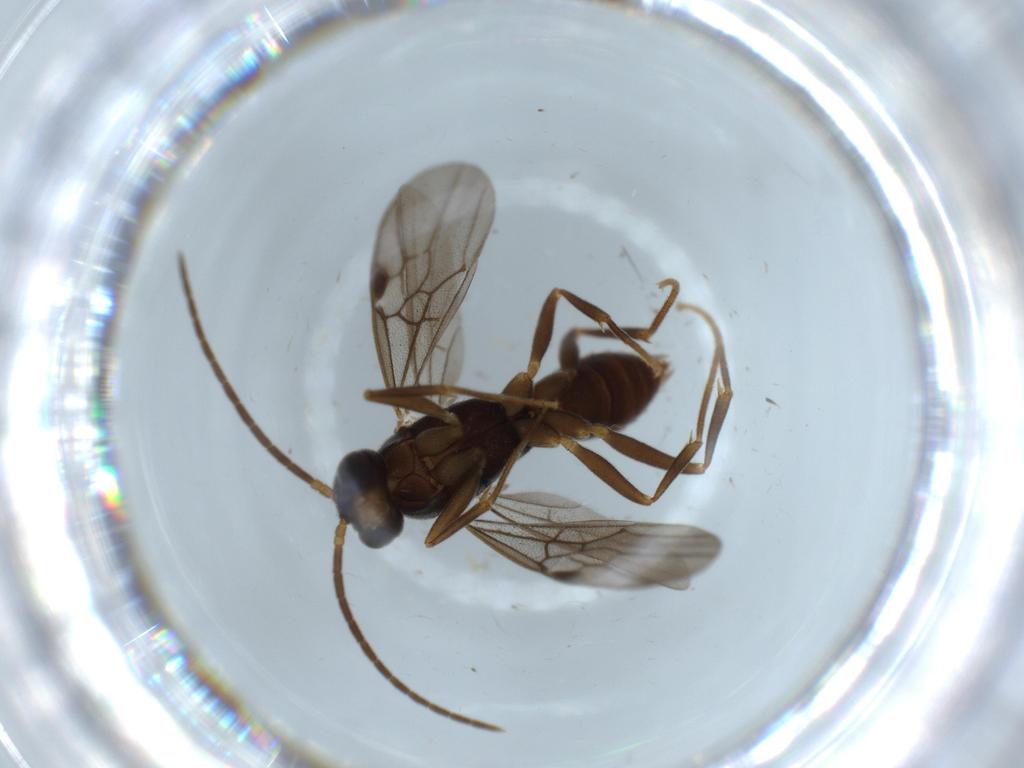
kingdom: Animalia
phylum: Arthropoda
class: Insecta
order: Hymenoptera
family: Formicidae
